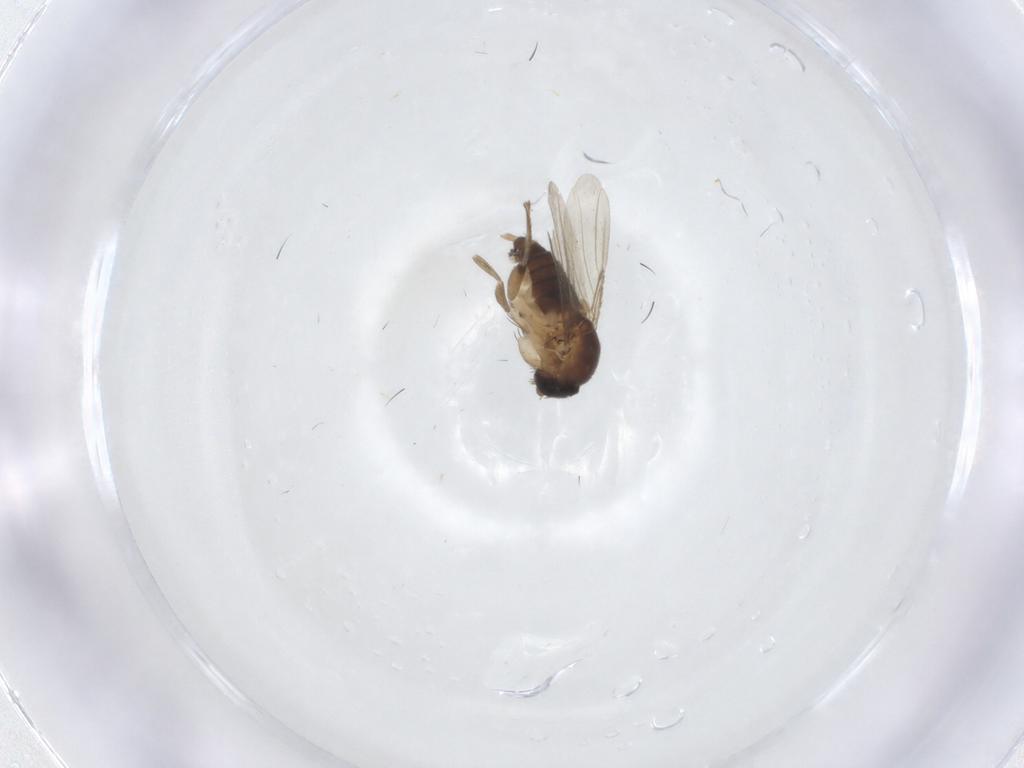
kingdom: Animalia
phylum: Arthropoda
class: Insecta
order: Diptera
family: Phoridae
